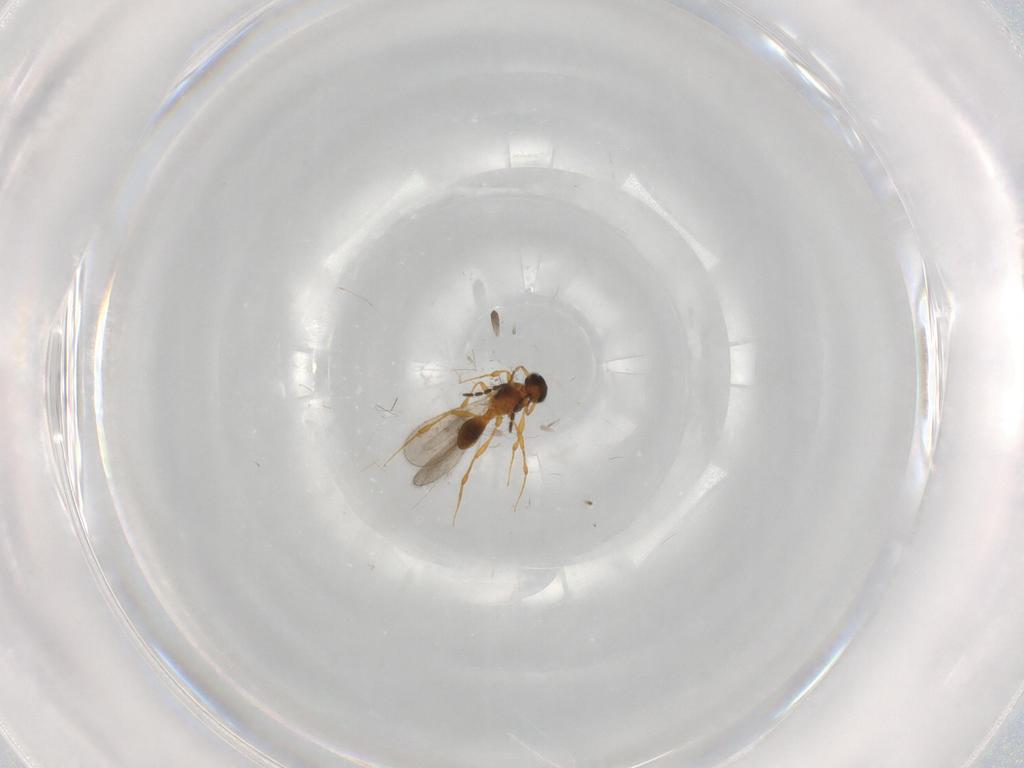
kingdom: Animalia
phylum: Arthropoda
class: Insecta
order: Hymenoptera
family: Platygastridae
